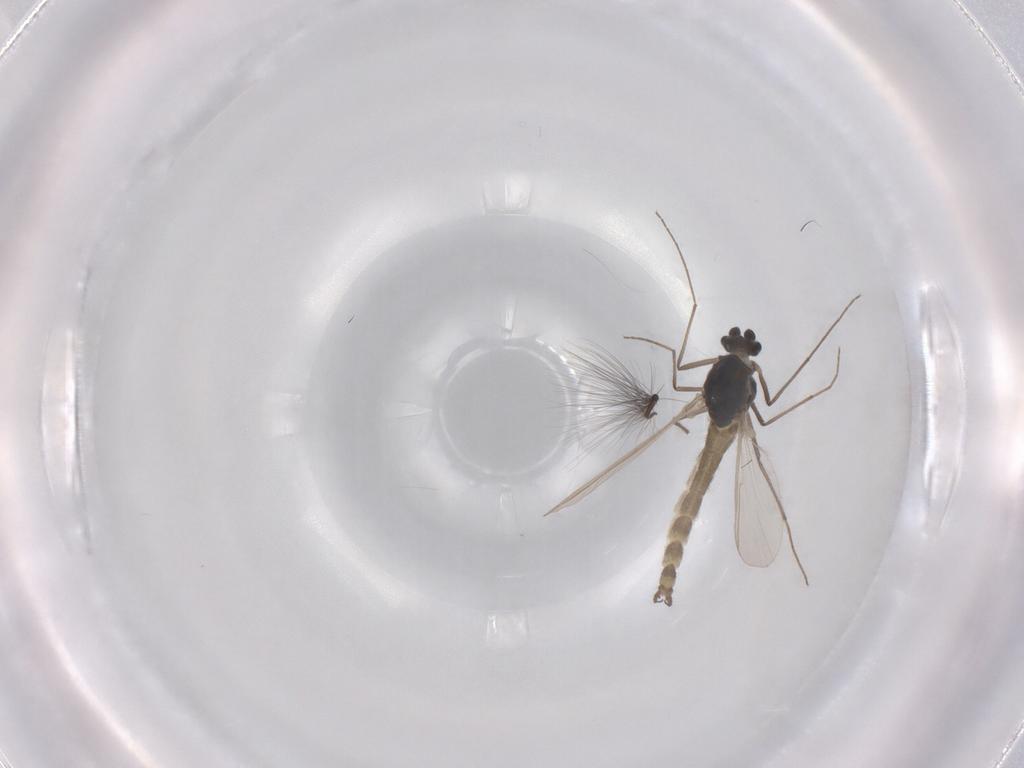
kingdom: Animalia
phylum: Arthropoda
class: Insecta
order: Diptera
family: Chironomidae
